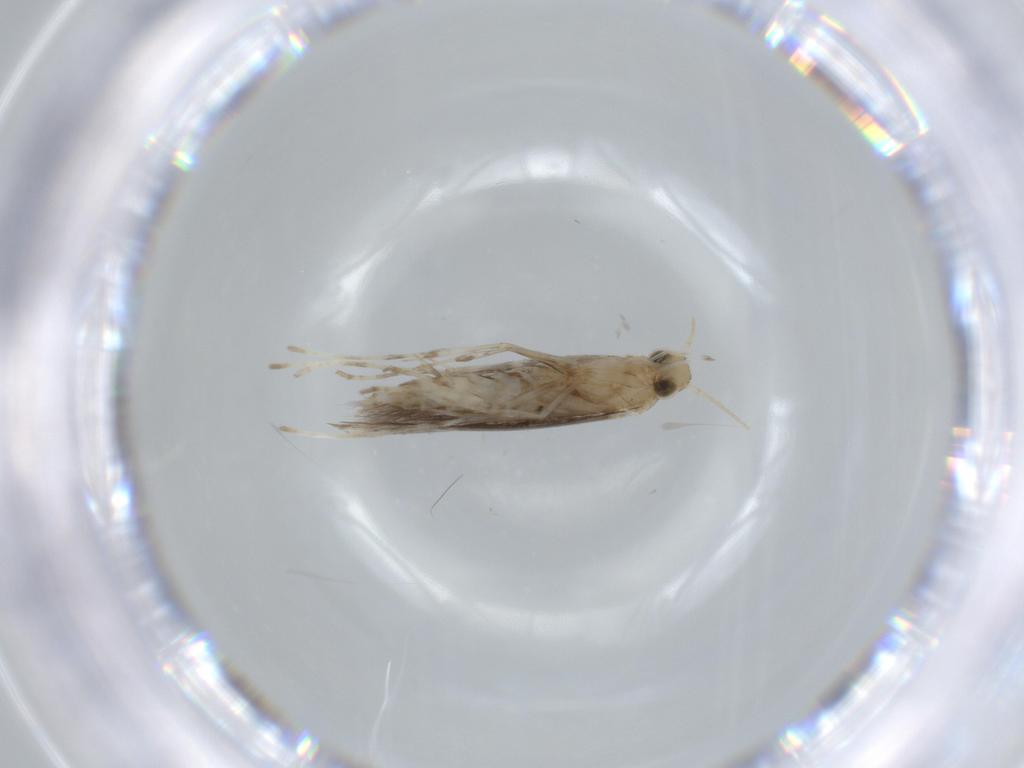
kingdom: Animalia
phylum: Arthropoda
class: Insecta
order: Lepidoptera
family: Gracillariidae
